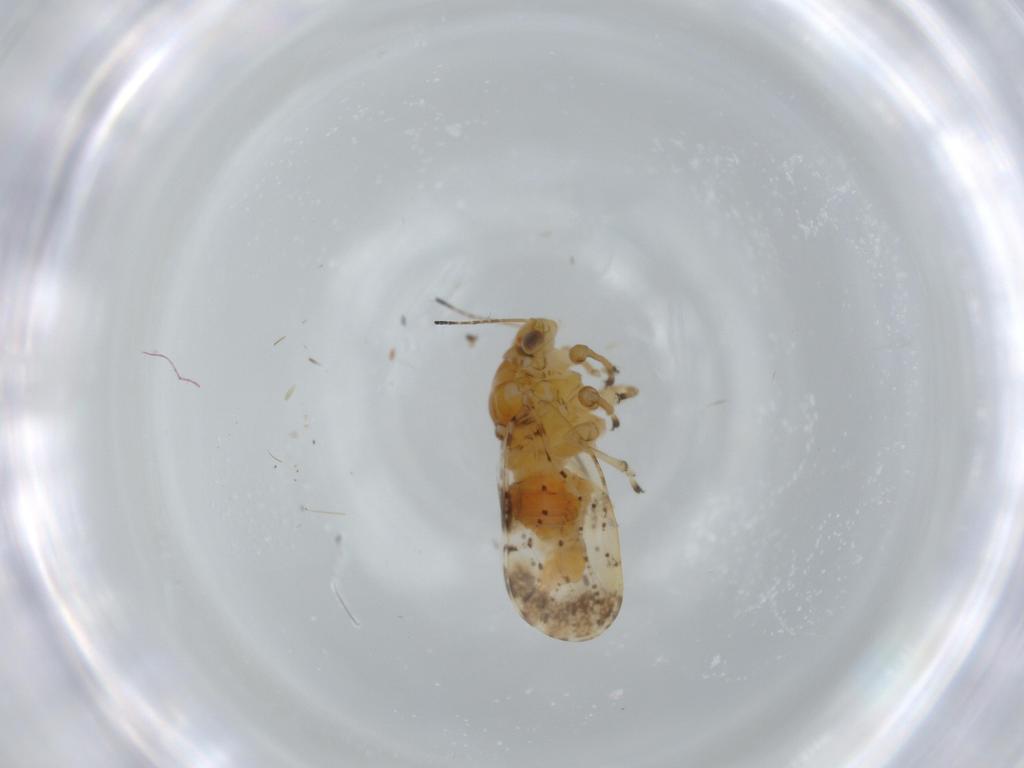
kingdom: Animalia
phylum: Arthropoda
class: Insecta
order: Hemiptera
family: Liviidae
